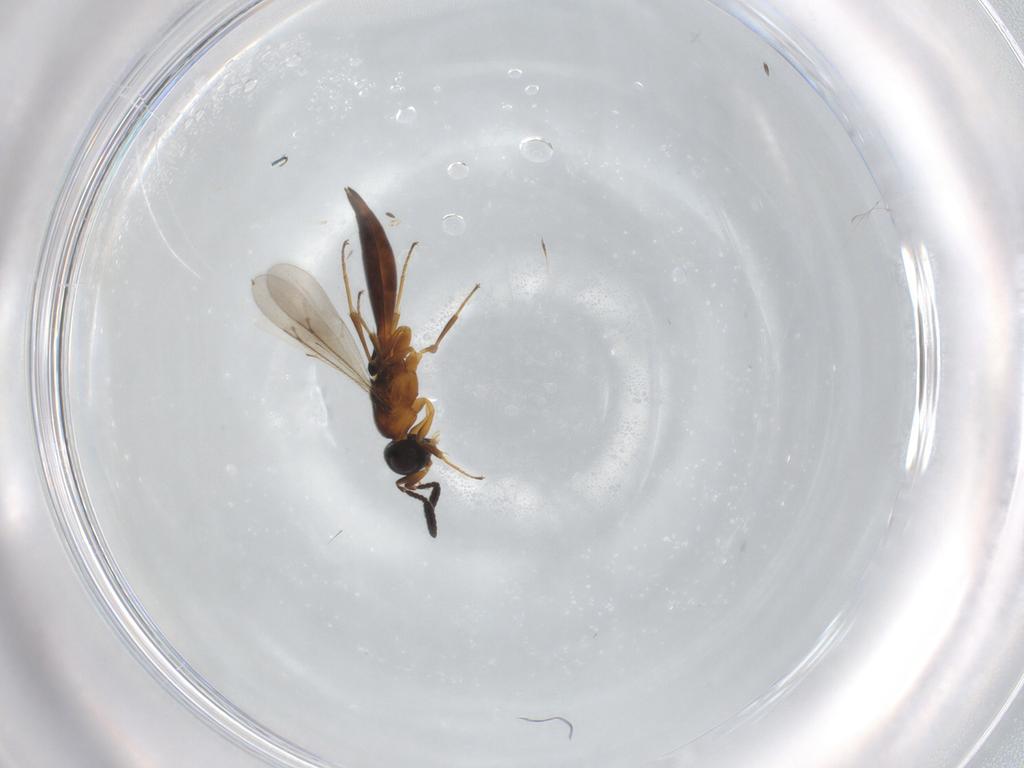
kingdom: Animalia
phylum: Arthropoda
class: Insecta
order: Hymenoptera
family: Scelionidae
